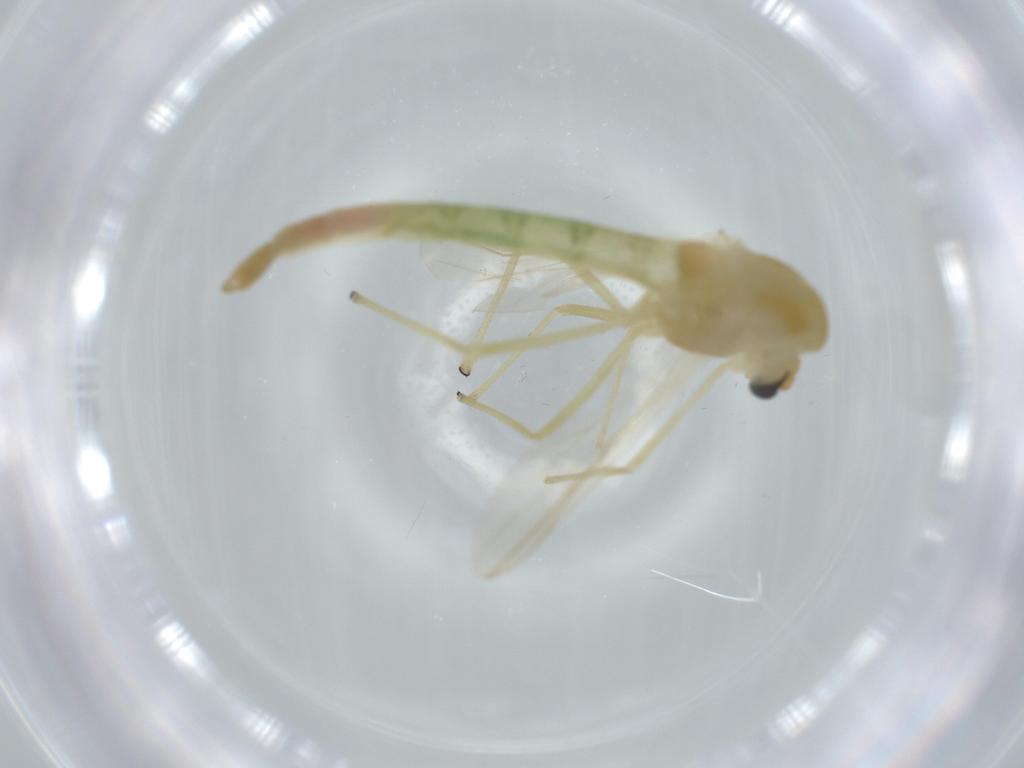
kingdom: Animalia
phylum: Arthropoda
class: Insecta
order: Diptera
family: Chironomidae
